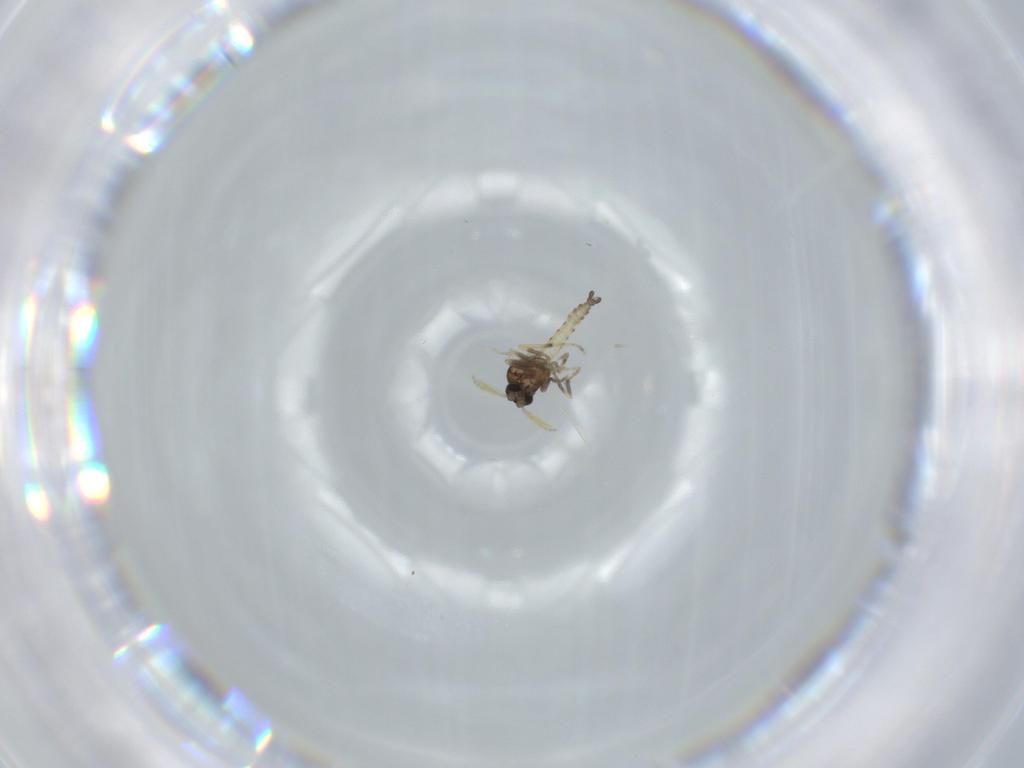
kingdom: Animalia
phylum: Arthropoda
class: Insecta
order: Diptera
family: Ceratopogonidae
